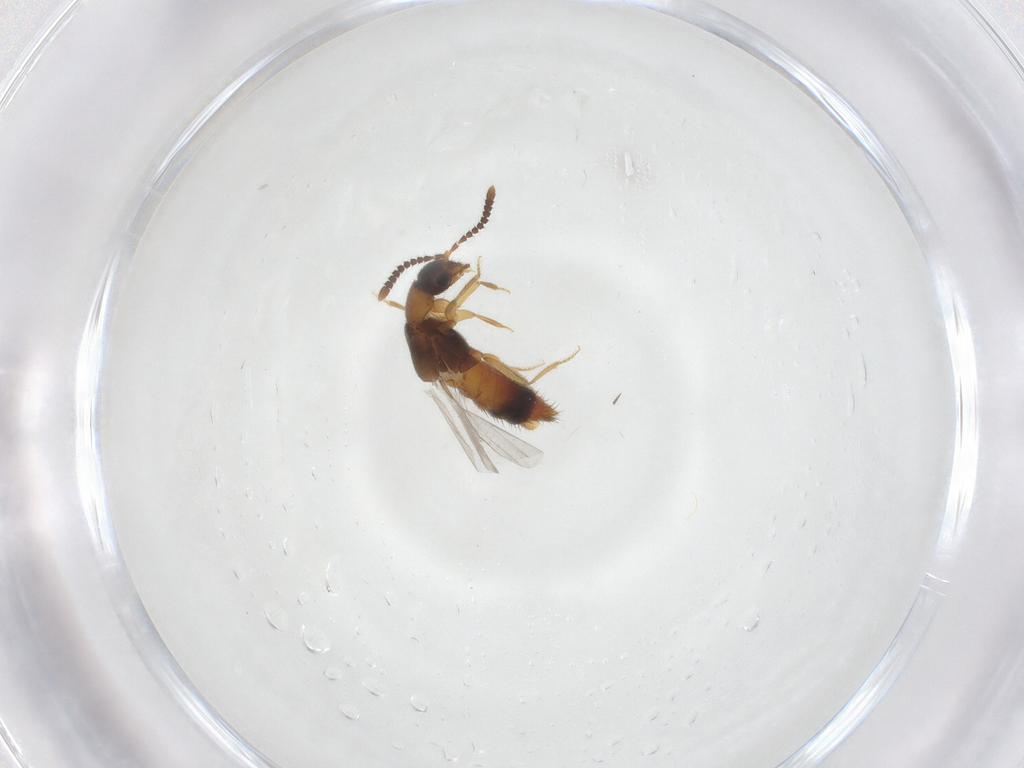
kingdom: Animalia
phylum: Arthropoda
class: Insecta
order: Coleoptera
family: Staphylinidae
